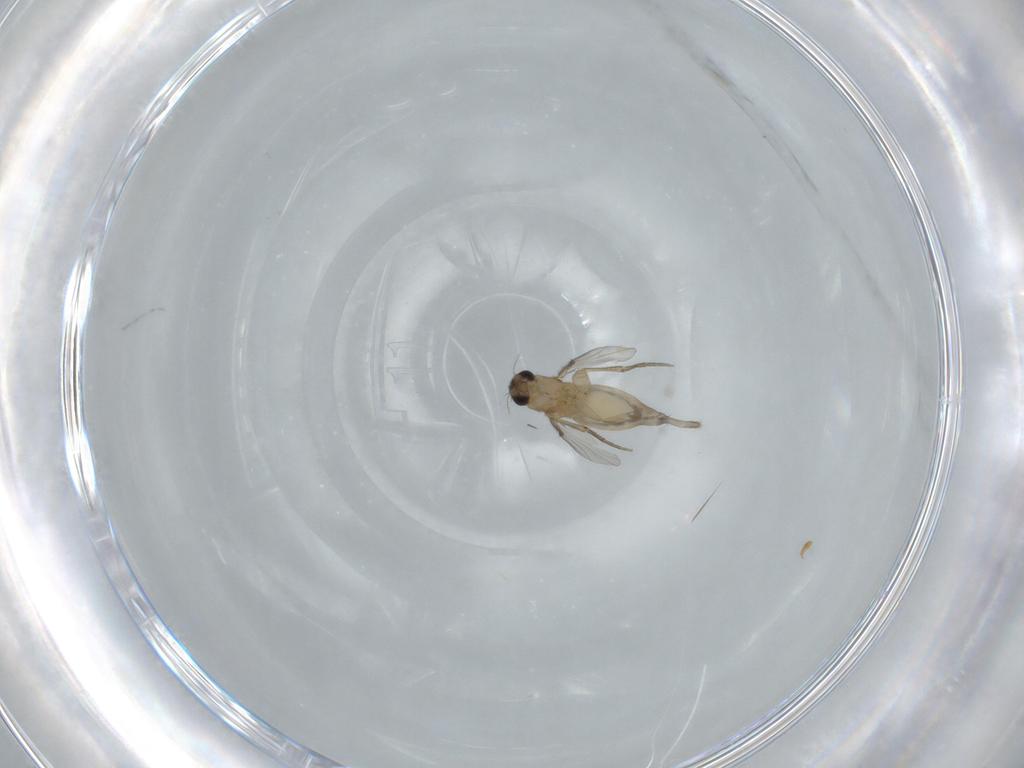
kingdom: Animalia
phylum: Arthropoda
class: Insecta
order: Diptera
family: Phoridae
